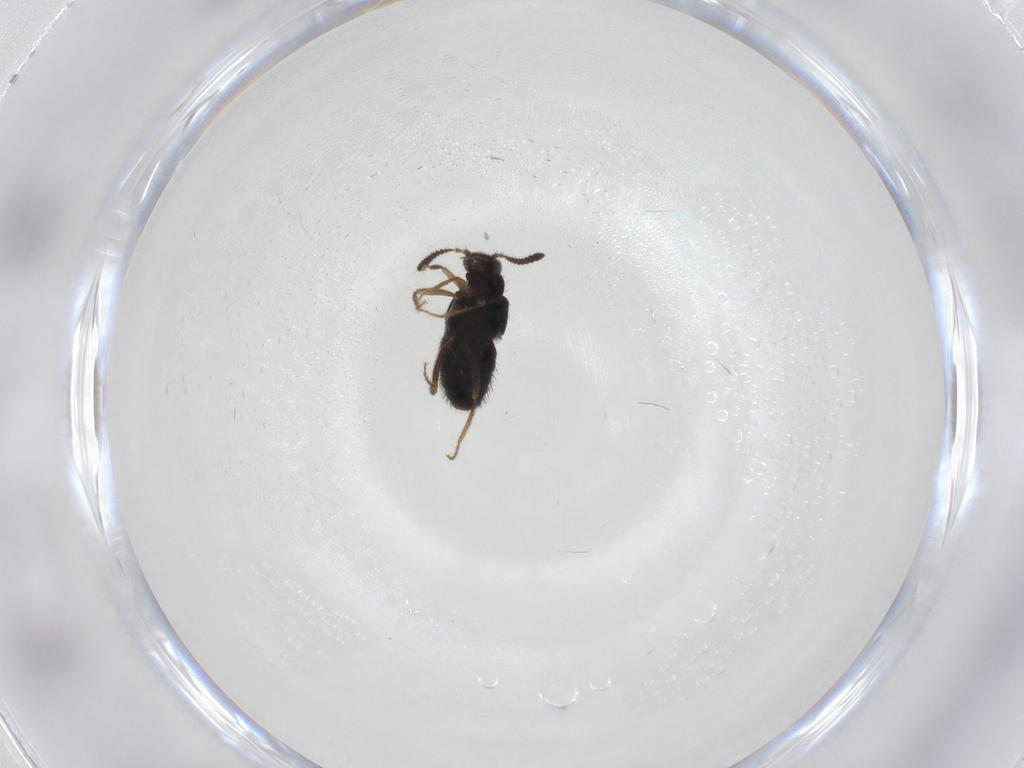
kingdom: Animalia
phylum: Arthropoda
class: Insecta
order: Coleoptera
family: Staphylinidae
